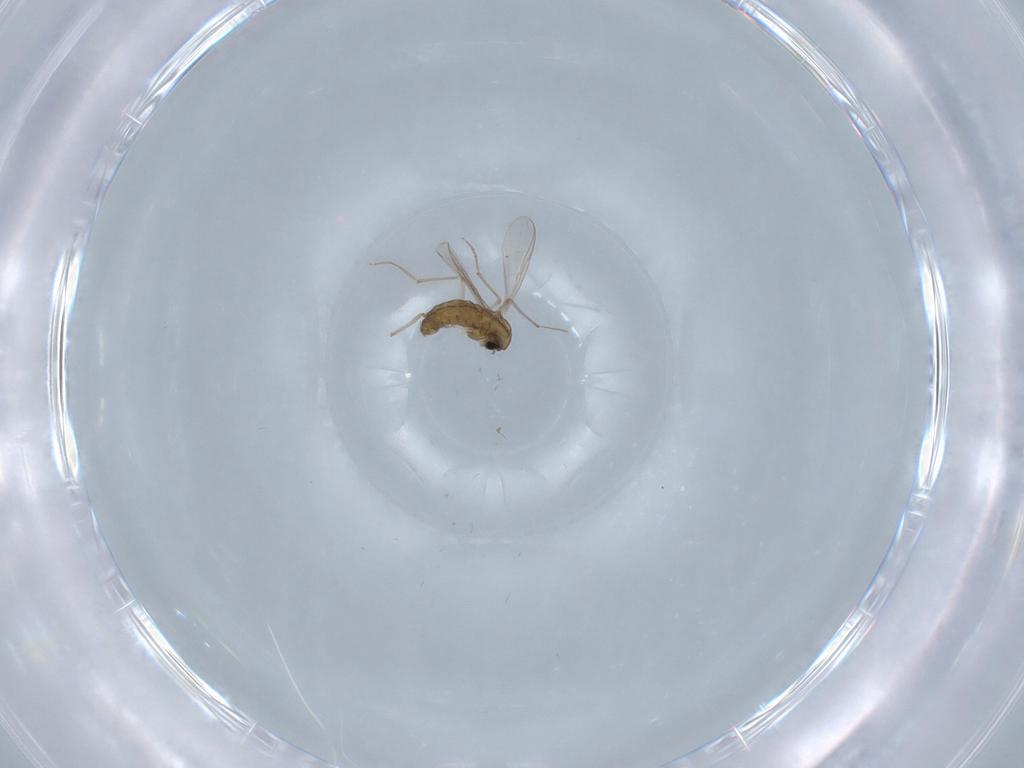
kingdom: Animalia
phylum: Arthropoda
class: Insecta
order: Diptera
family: Chironomidae
